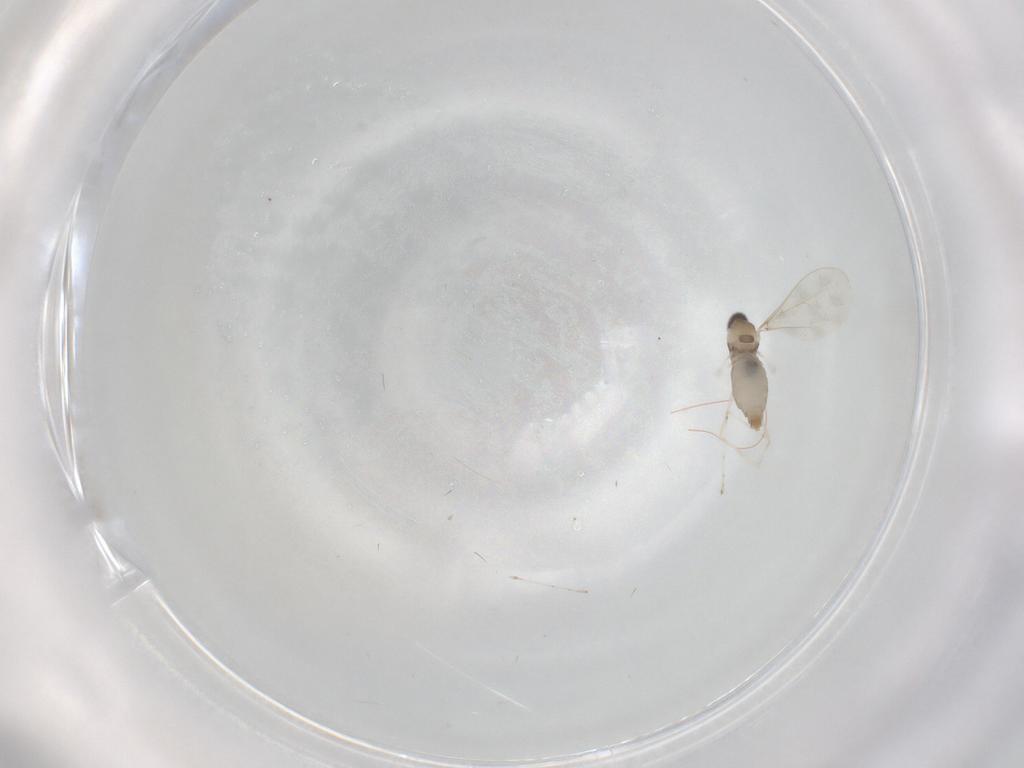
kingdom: Animalia
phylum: Arthropoda
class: Insecta
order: Diptera
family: Cecidomyiidae
